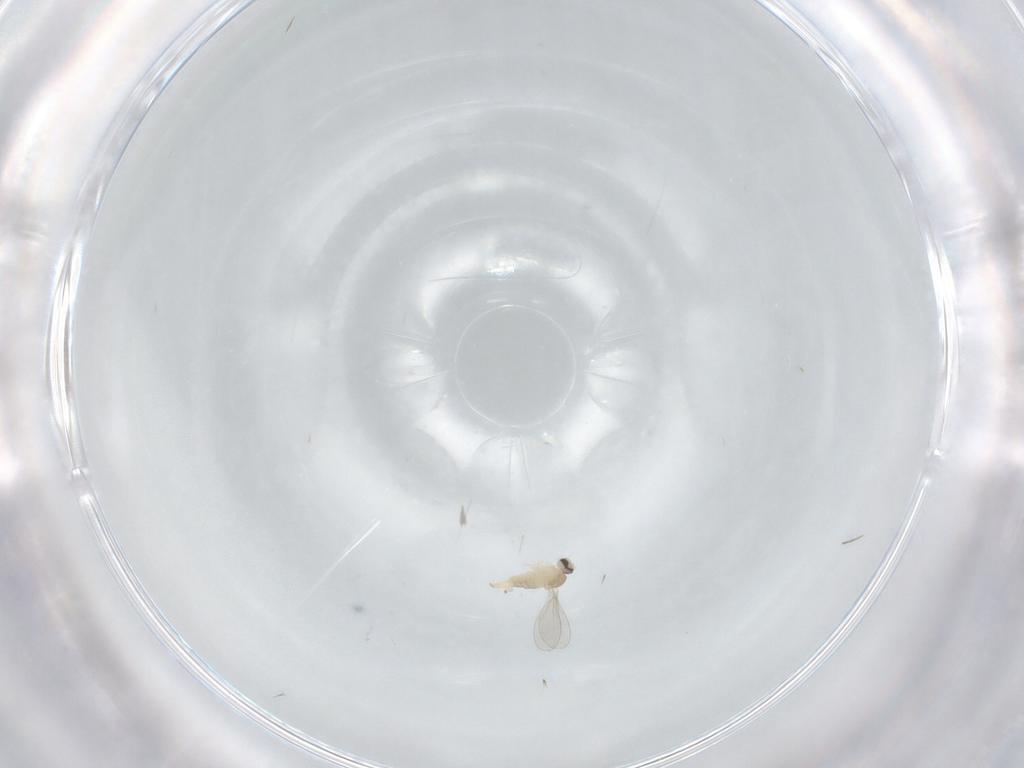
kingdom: Animalia
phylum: Arthropoda
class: Insecta
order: Diptera
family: Cecidomyiidae
